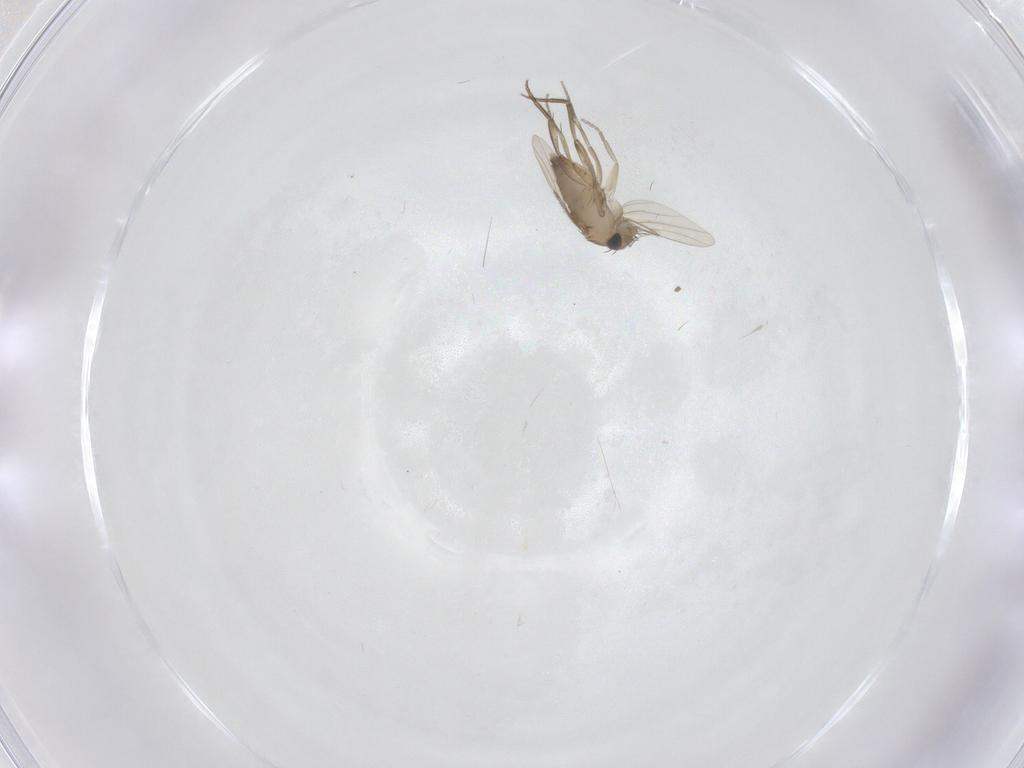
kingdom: Animalia
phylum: Arthropoda
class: Insecta
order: Diptera
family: Phoridae
